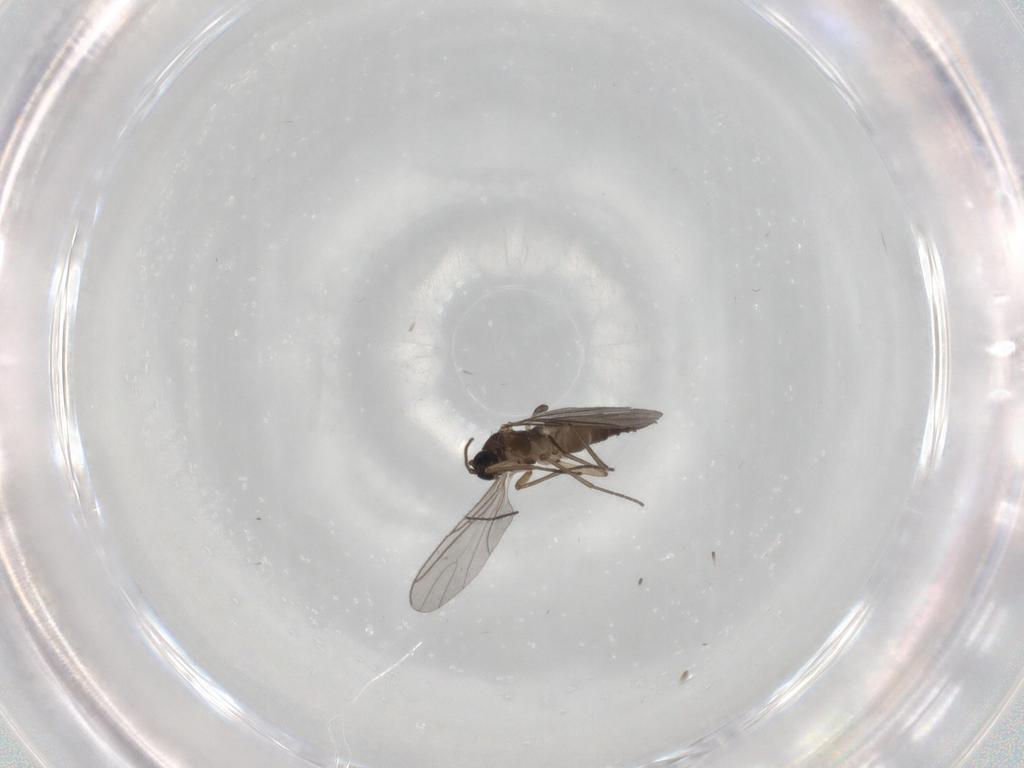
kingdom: Animalia
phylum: Arthropoda
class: Insecta
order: Diptera
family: Sciaridae
